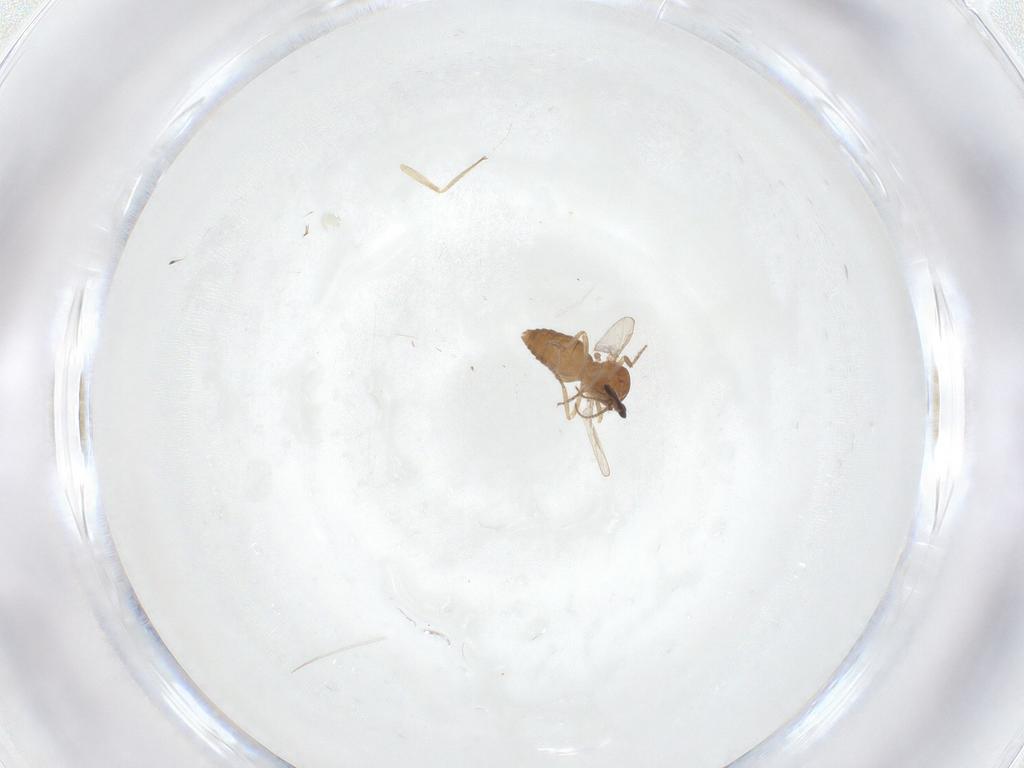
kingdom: Animalia
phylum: Arthropoda
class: Insecta
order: Diptera
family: Ceratopogonidae
